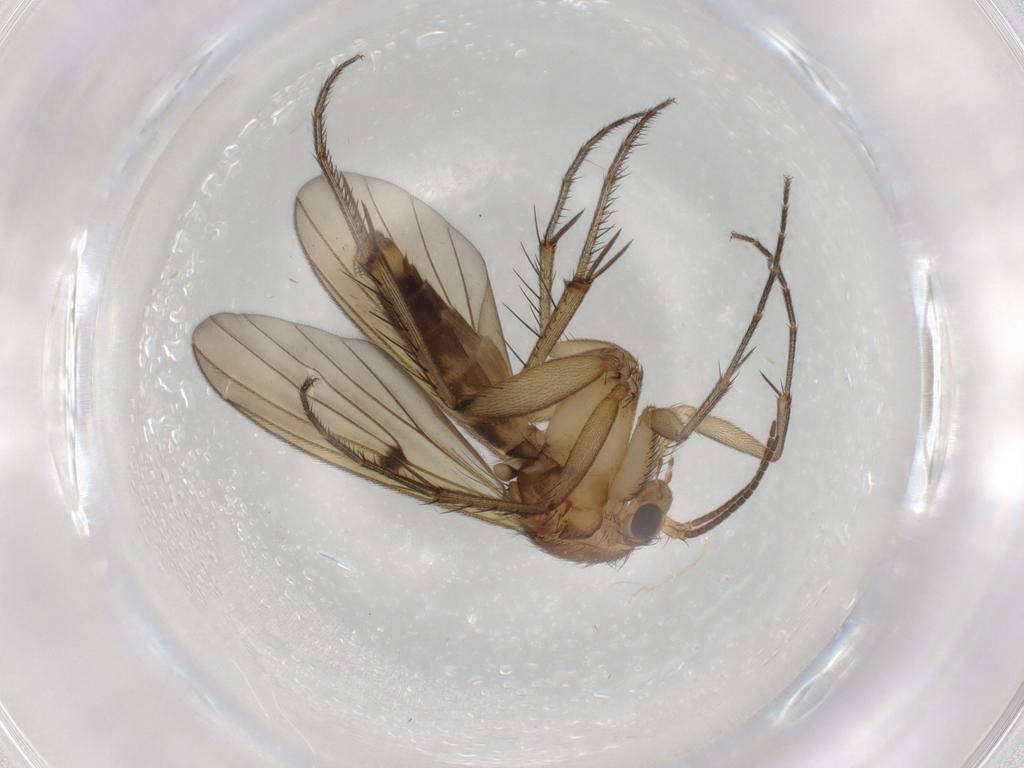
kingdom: Animalia
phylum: Arthropoda
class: Insecta
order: Diptera
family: Mycetophilidae
